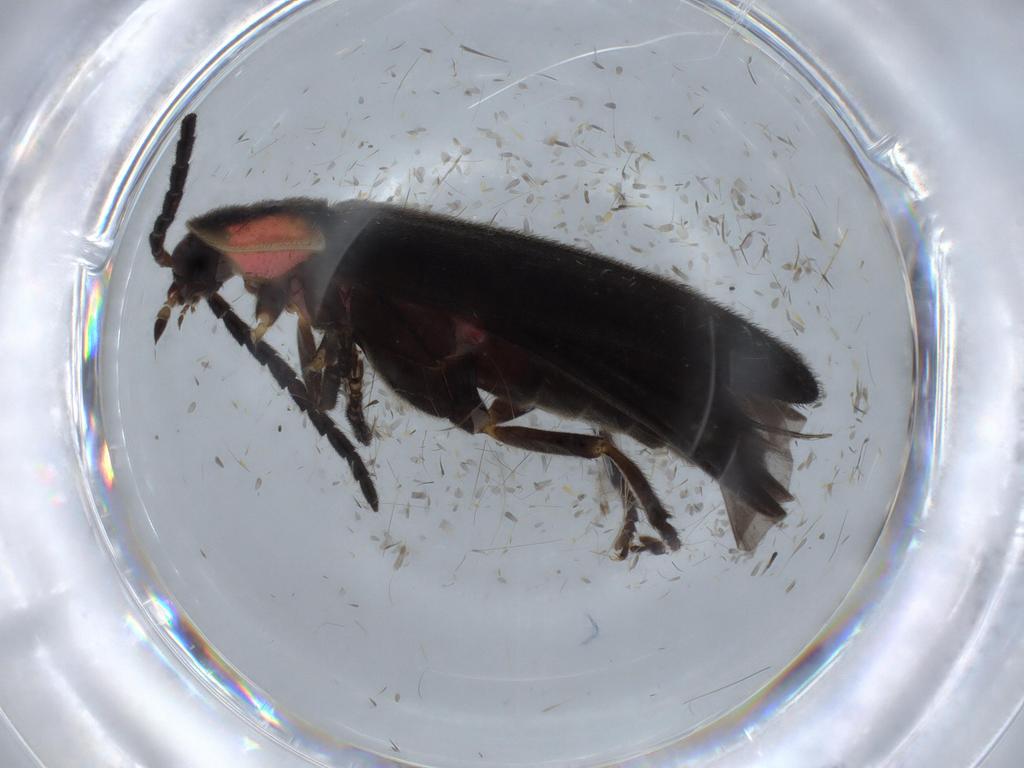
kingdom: Animalia
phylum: Arthropoda
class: Insecta
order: Coleoptera
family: Lampyridae
